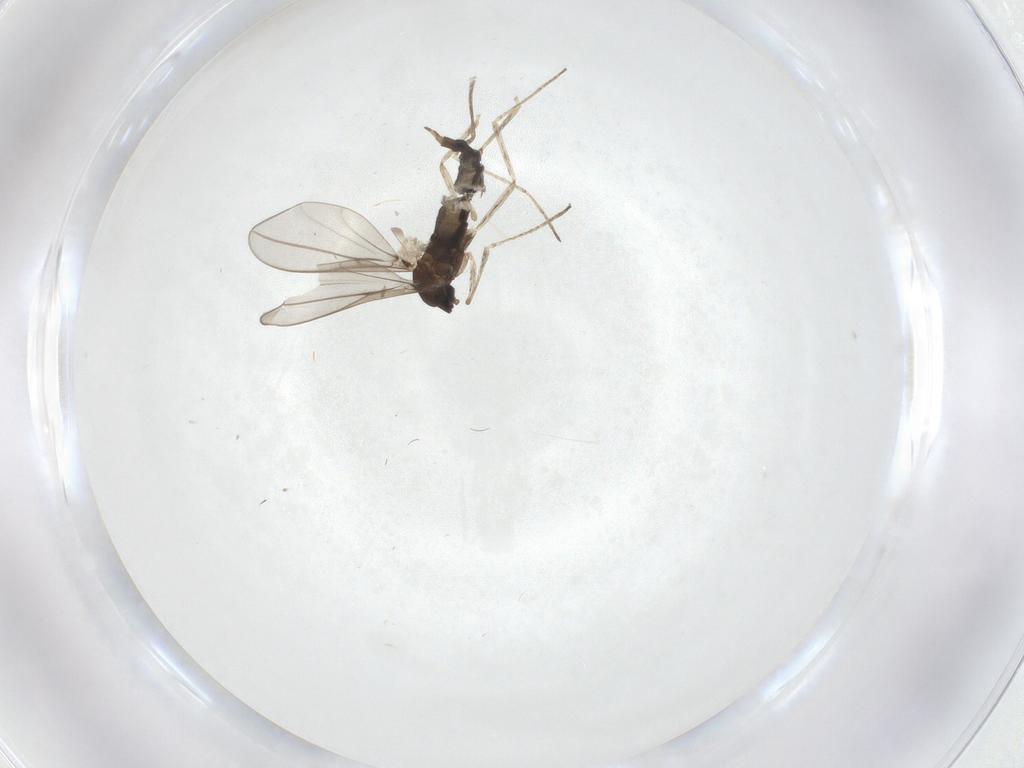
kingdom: Animalia
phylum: Arthropoda
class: Insecta
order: Diptera
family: Cecidomyiidae
